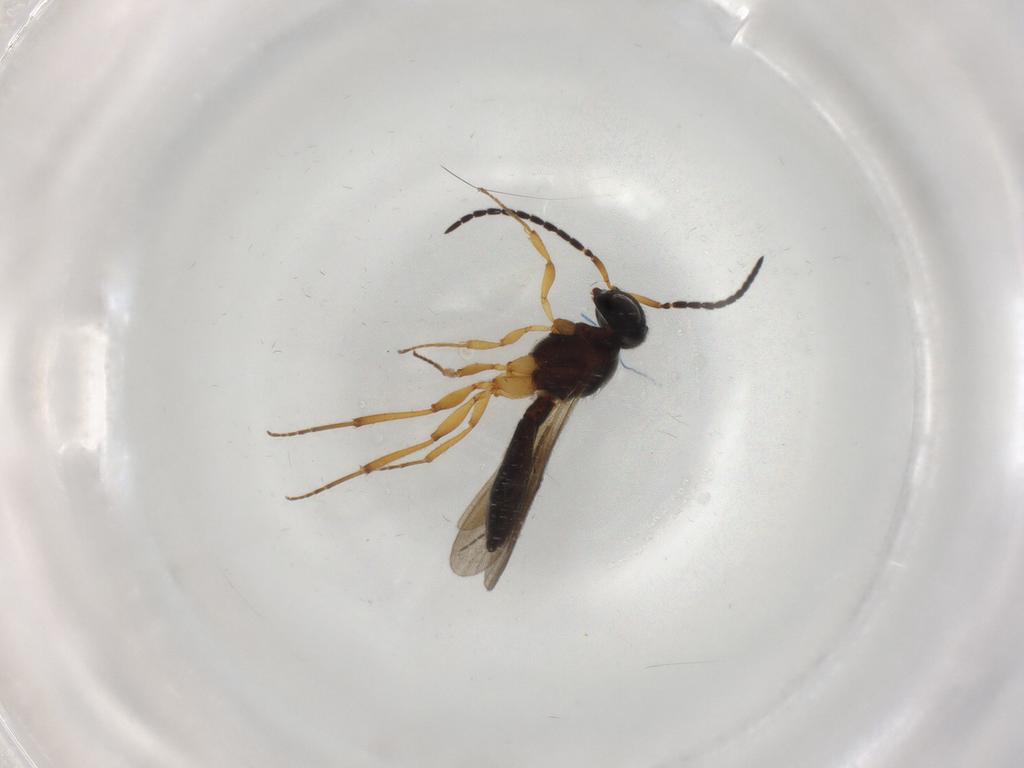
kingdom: Animalia
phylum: Arthropoda
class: Insecta
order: Hymenoptera
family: Scelionidae
